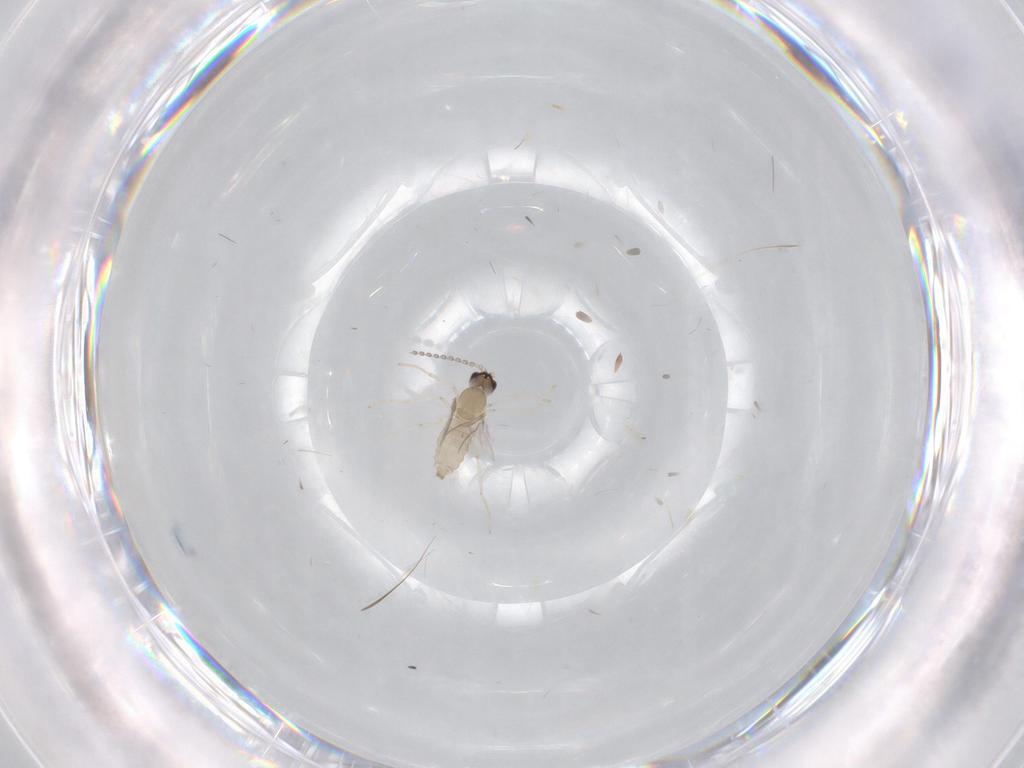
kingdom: Animalia
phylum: Arthropoda
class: Insecta
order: Diptera
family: Cecidomyiidae
